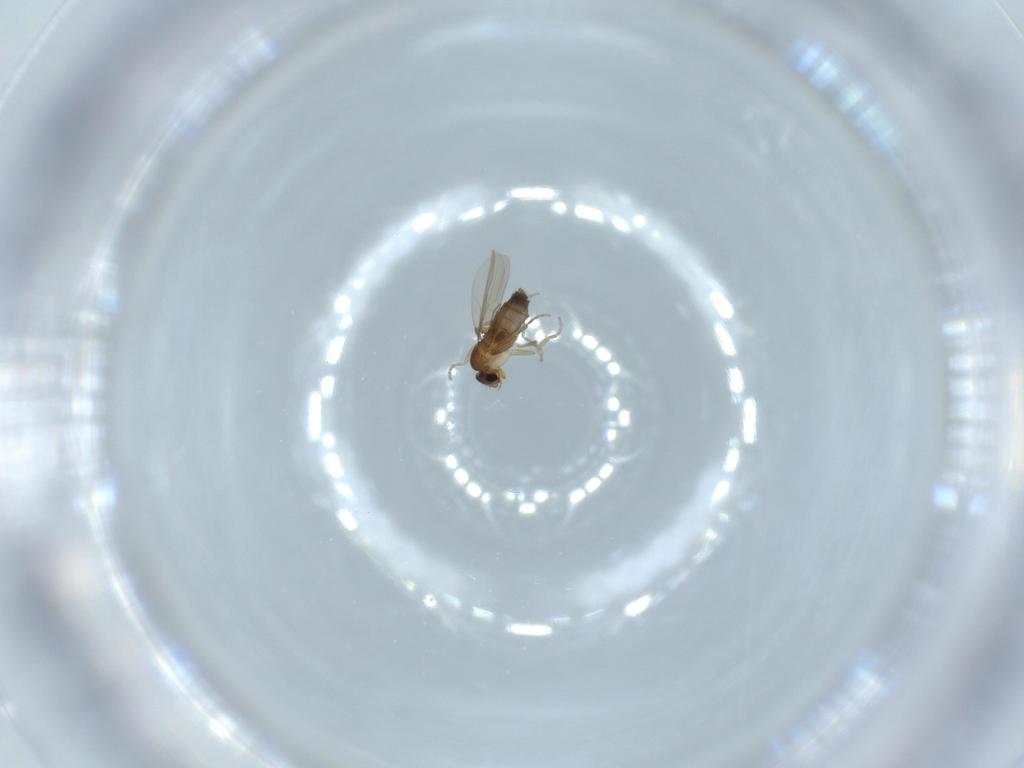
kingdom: Animalia
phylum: Arthropoda
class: Insecta
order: Diptera
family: Phoridae
